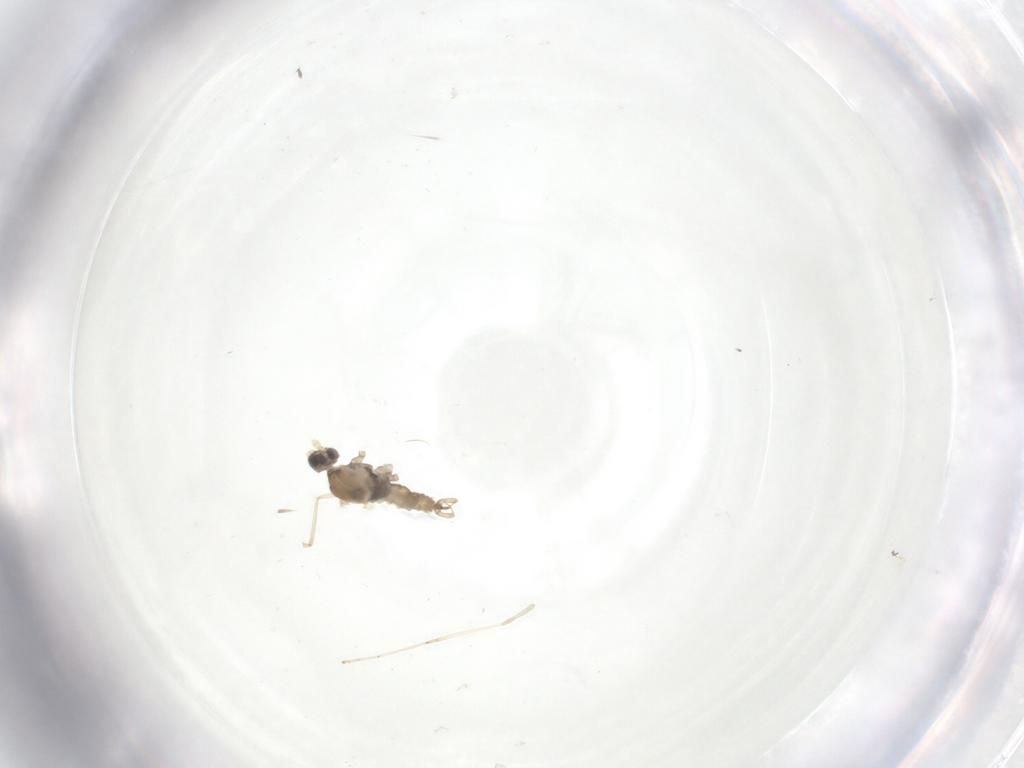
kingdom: Animalia
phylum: Arthropoda
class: Insecta
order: Diptera
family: Cecidomyiidae
